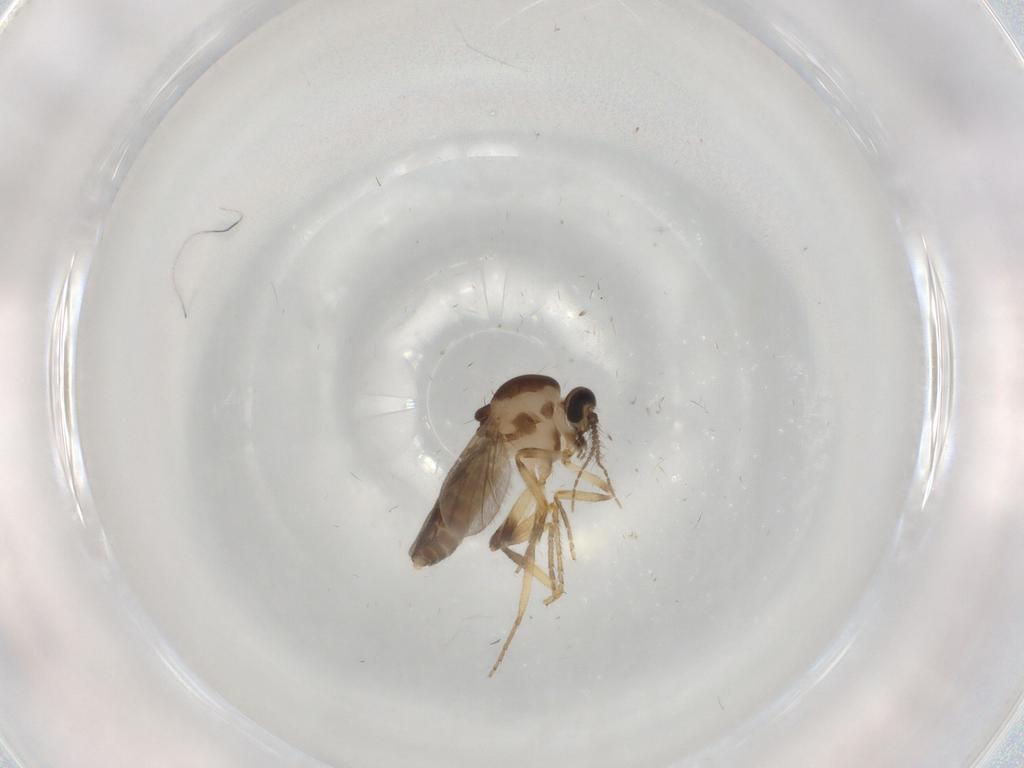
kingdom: Animalia
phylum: Arthropoda
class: Insecta
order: Diptera
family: Ceratopogonidae
